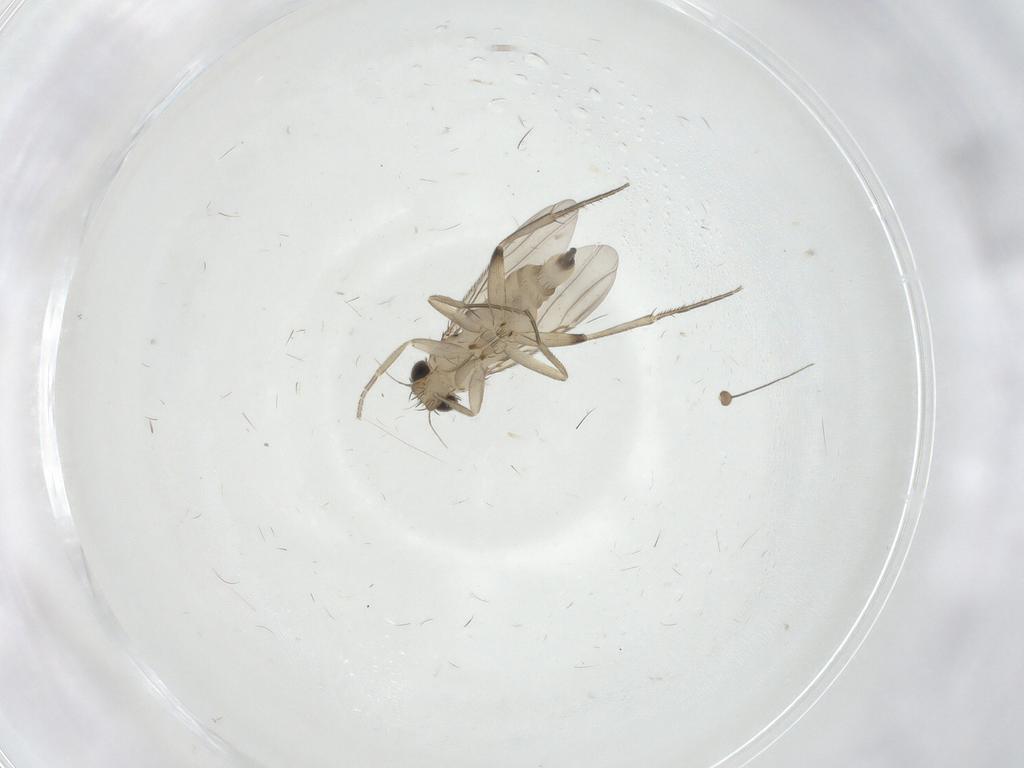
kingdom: Animalia
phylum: Arthropoda
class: Insecta
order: Diptera
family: Phoridae
